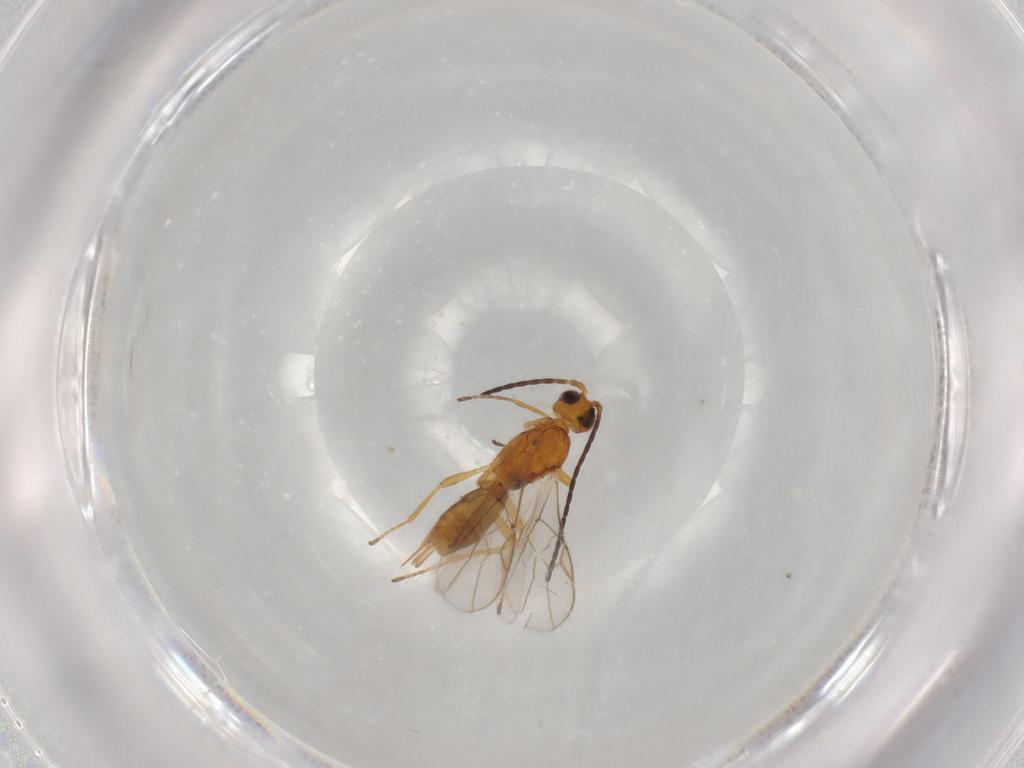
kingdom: Animalia
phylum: Arthropoda
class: Insecta
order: Hymenoptera
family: Braconidae
